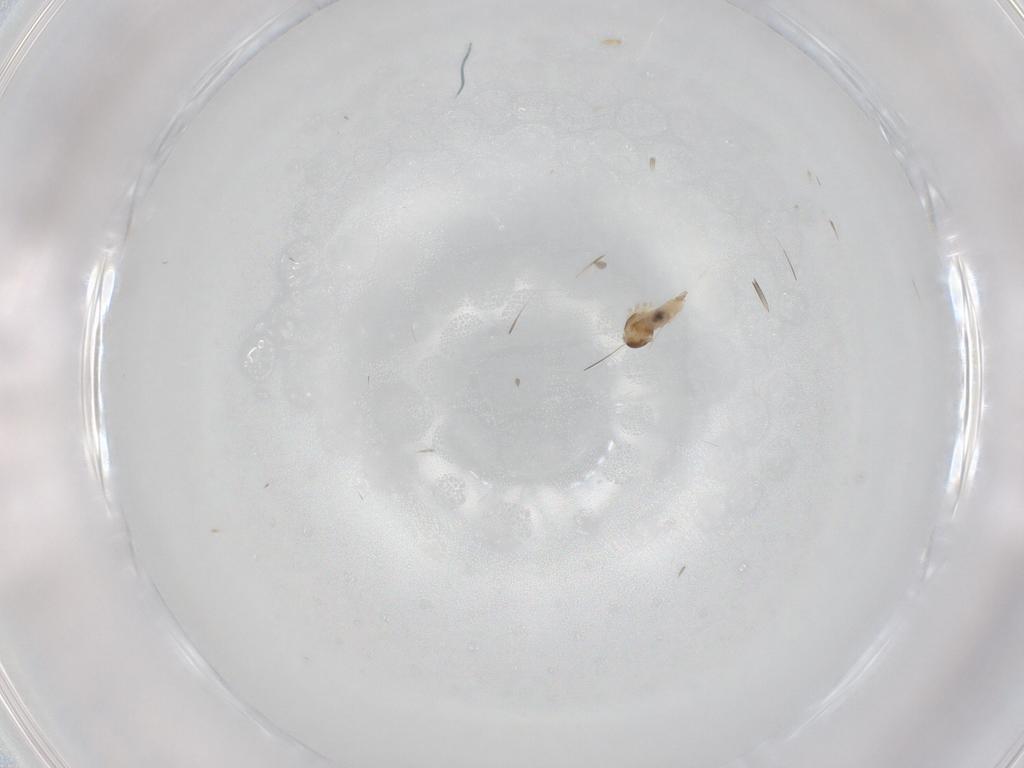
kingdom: Animalia
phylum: Arthropoda
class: Insecta
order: Diptera
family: Cecidomyiidae
